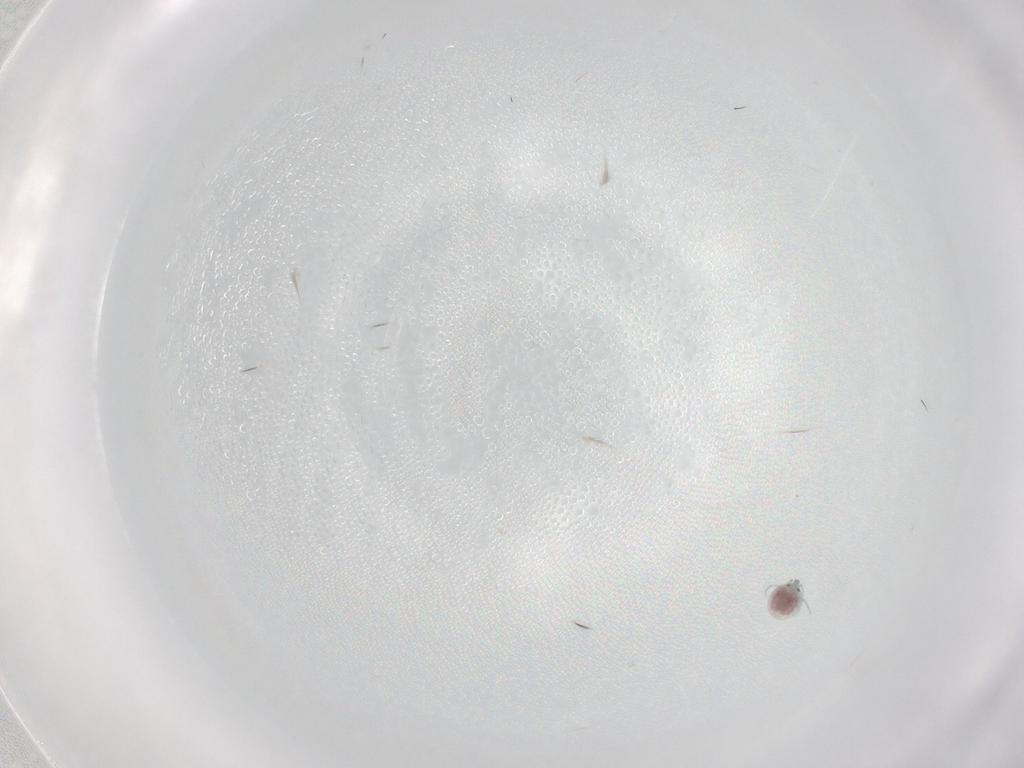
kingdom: Animalia
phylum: Arthropoda
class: Arachnida
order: Trombidiformes
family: Unionicolidae
